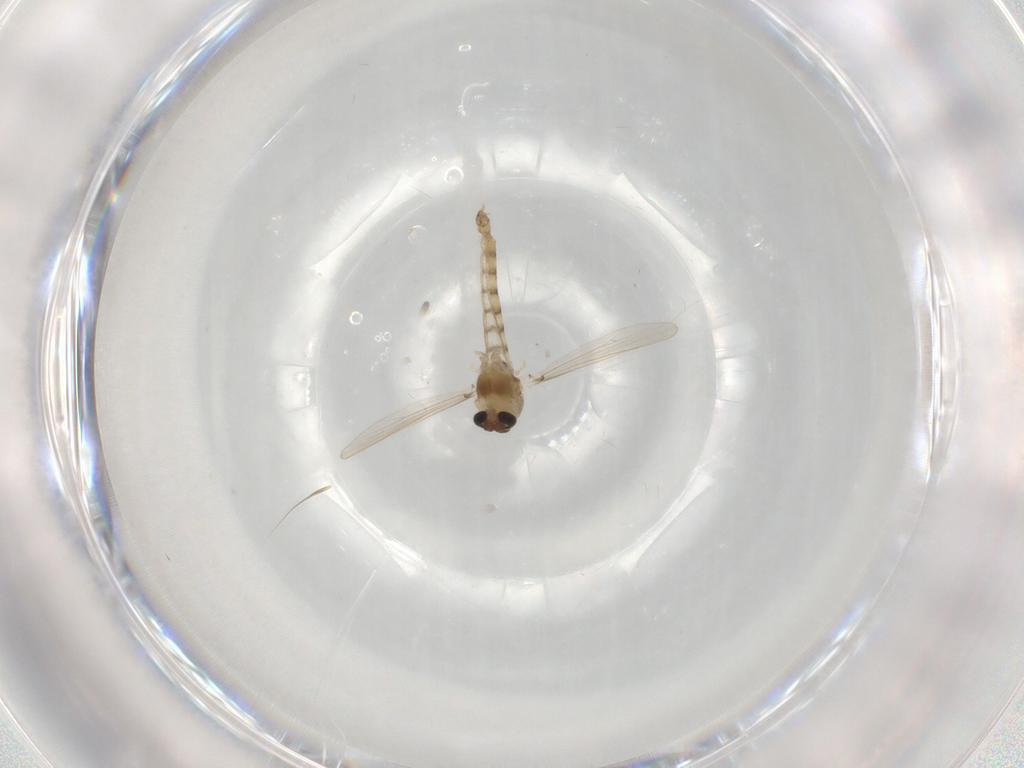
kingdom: Animalia
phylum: Arthropoda
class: Insecta
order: Diptera
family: Chironomidae
